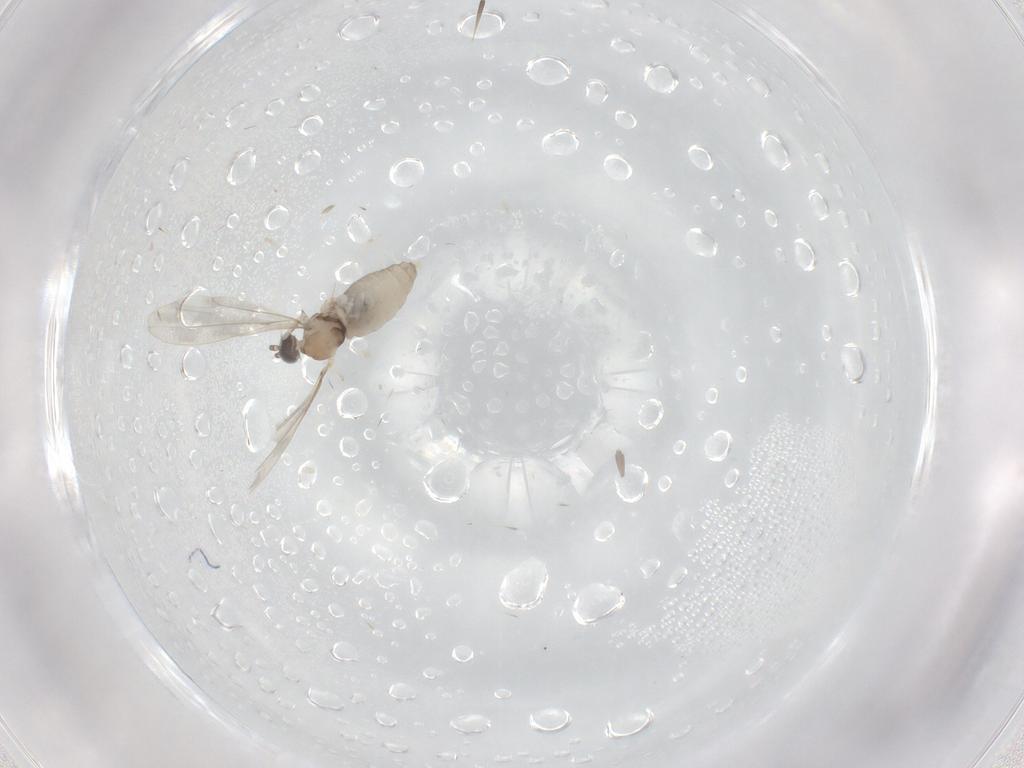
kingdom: Animalia
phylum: Arthropoda
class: Insecta
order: Diptera
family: Cecidomyiidae
